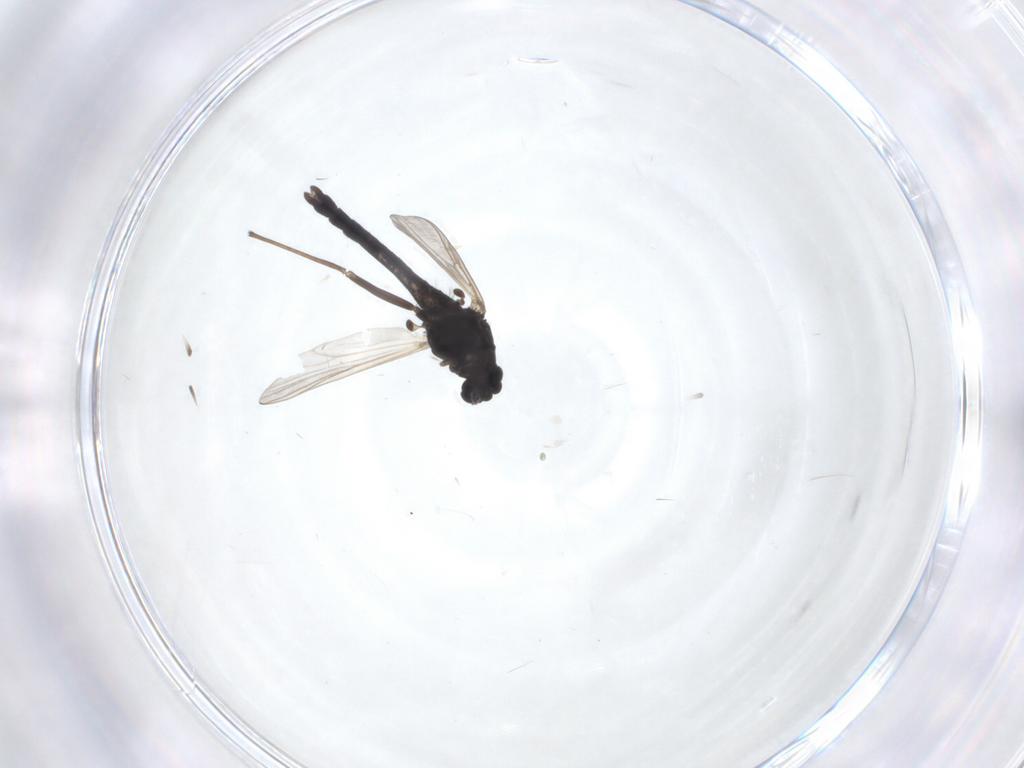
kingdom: Animalia
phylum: Arthropoda
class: Insecta
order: Diptera
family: Chironomidae
